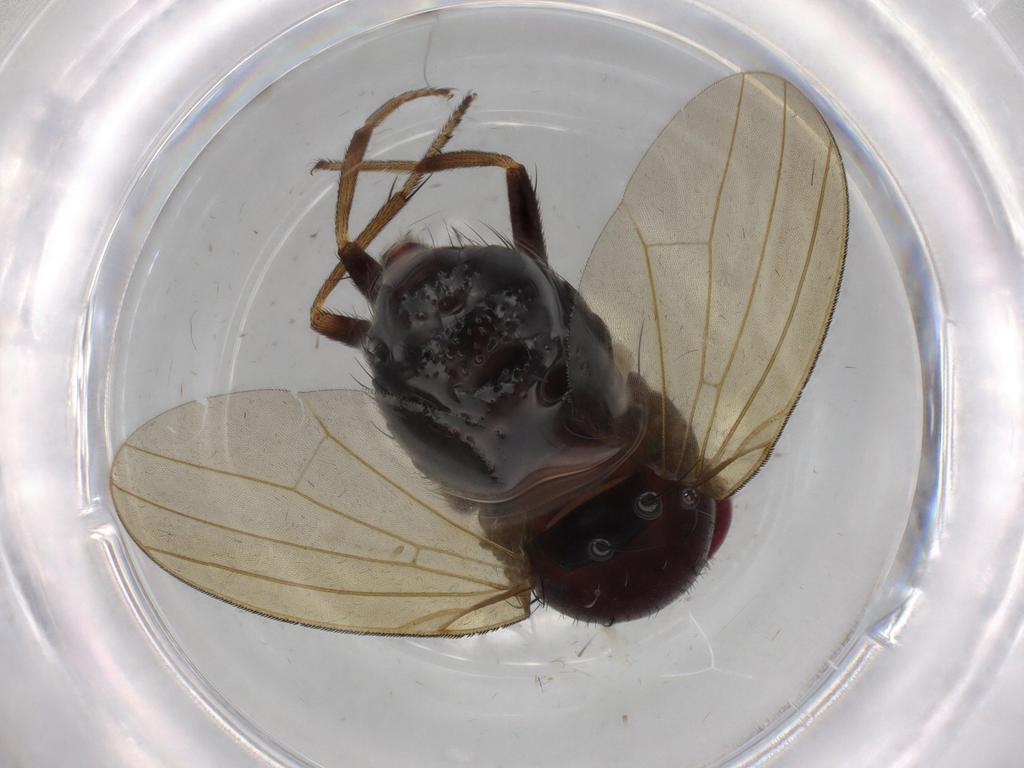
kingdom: Animalia
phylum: Arthropoda
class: Insecta
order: Diptera
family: Lauxaniidae
